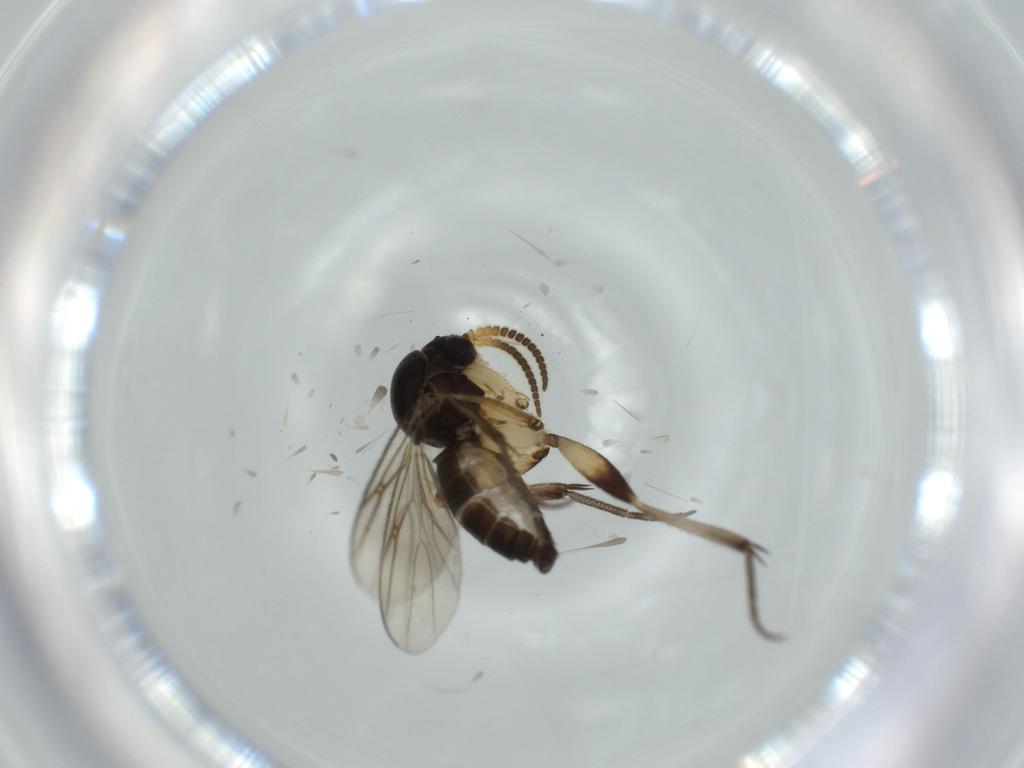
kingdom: Animalia
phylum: Arthropoda
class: Insecta
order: Diptera
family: Mycetophilidae
